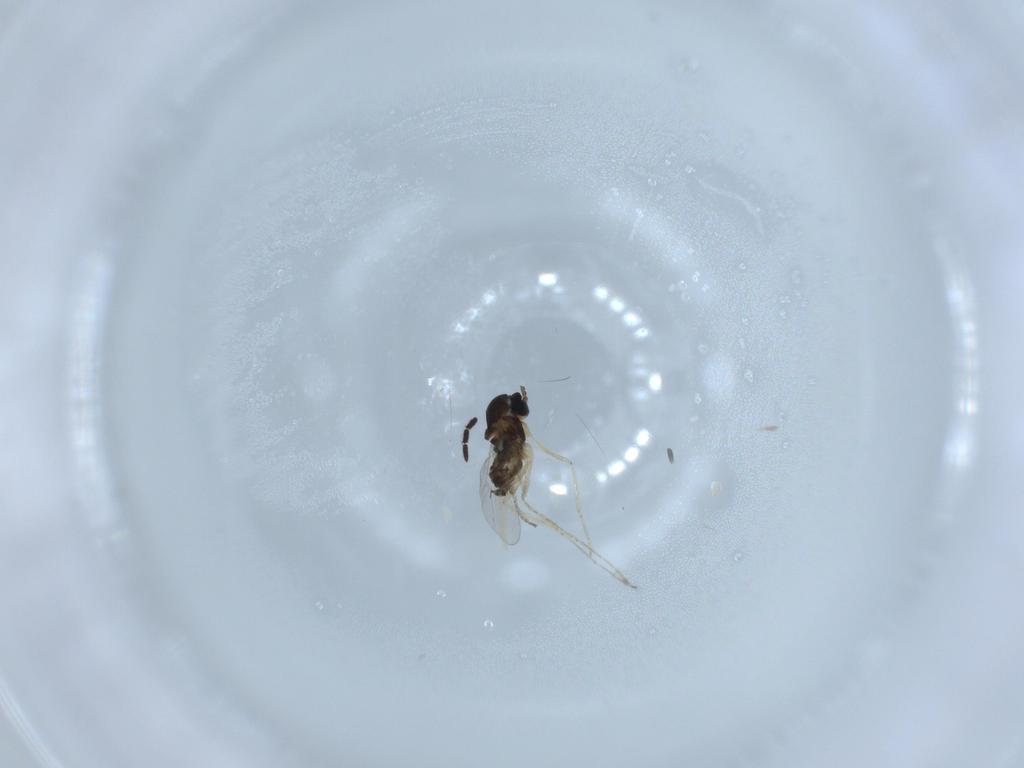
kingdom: Animalia
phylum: Arthropoda
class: Insecta
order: Diptera
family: Cecidomyiidae
